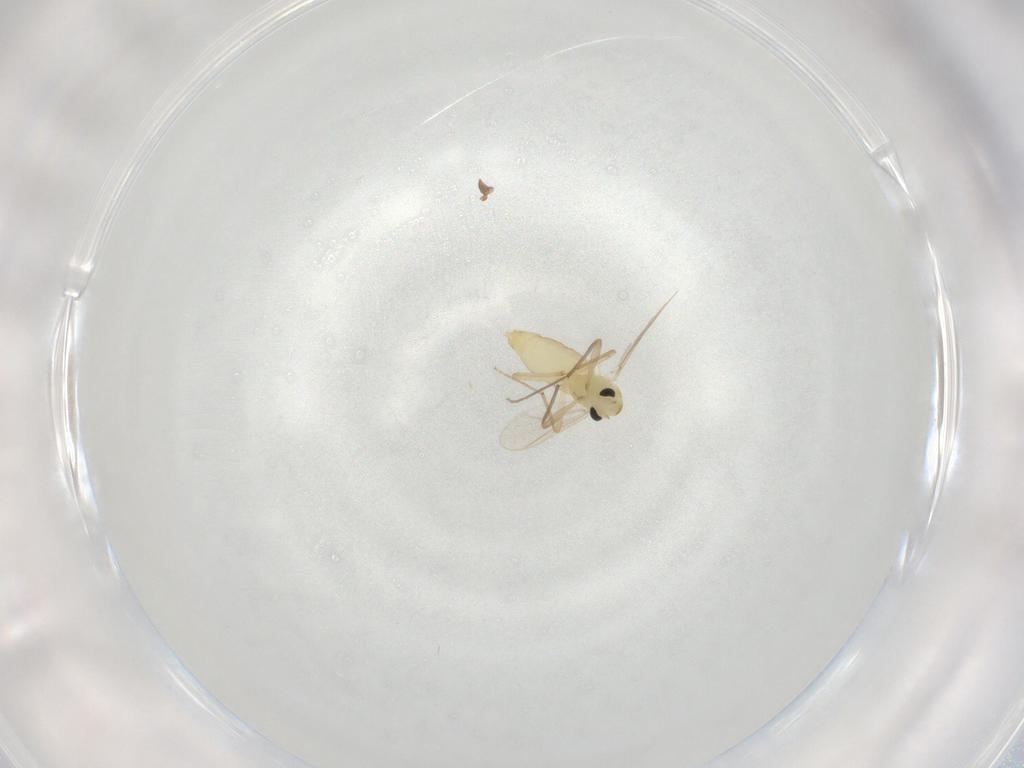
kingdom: Animalia
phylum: Arthropoda
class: Insecta
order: Diptera
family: Chironomidae
